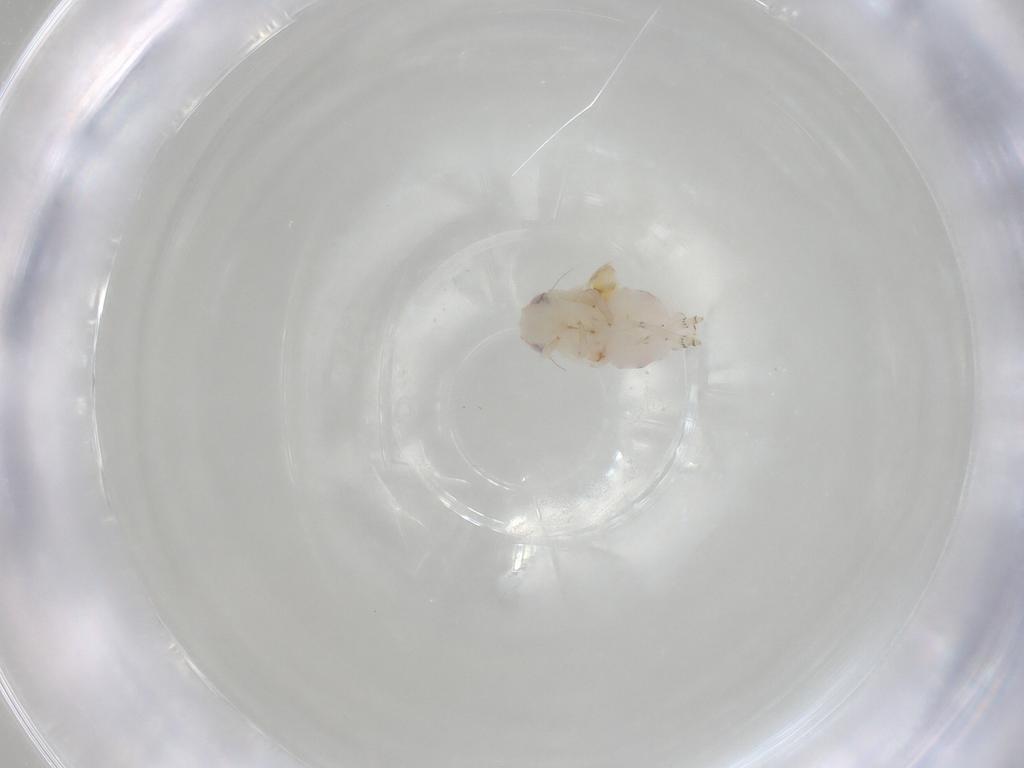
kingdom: Animalia
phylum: Arthropoda
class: Insecta
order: Hemiptera
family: Nogodinidae
